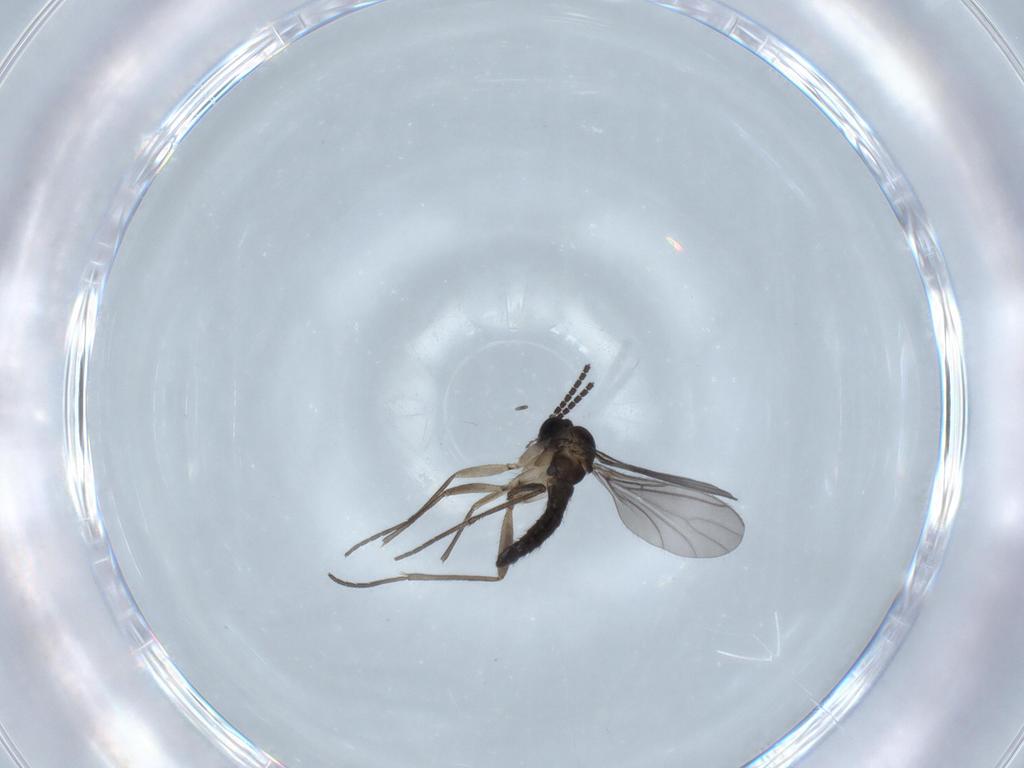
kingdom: Animalia
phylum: Arthropoda
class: Insecta
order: Diptera
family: Sciaridae
